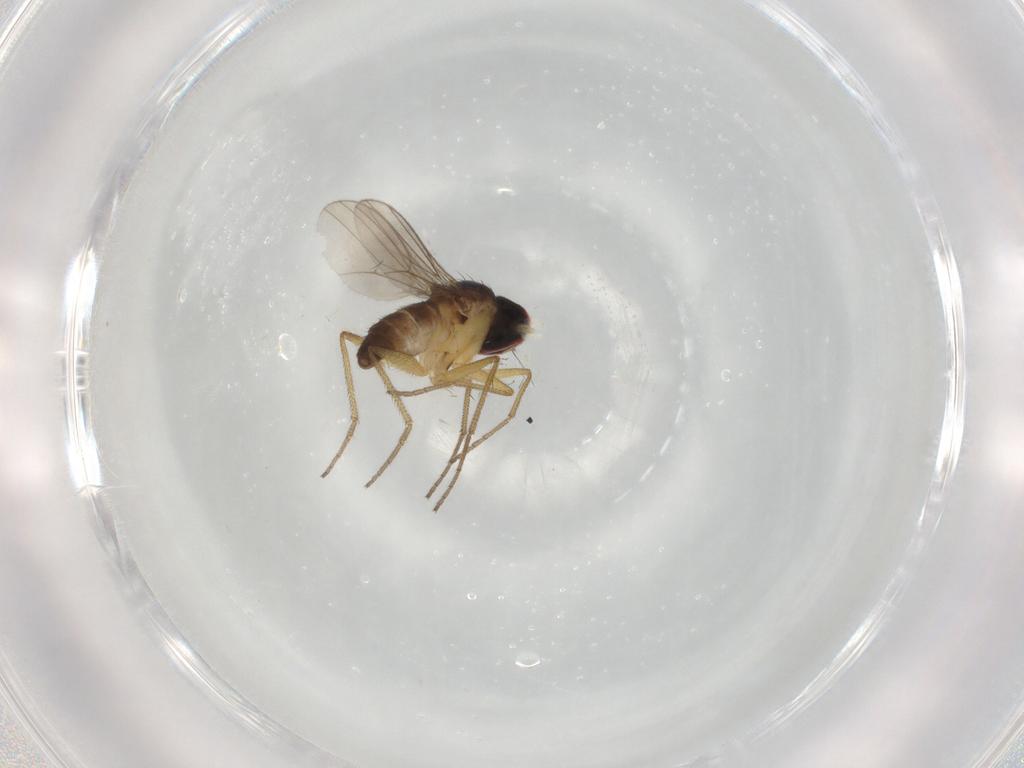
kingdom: Animalia
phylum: Arthropoda
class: Insecta
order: Diptera
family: Dolichopodidae
